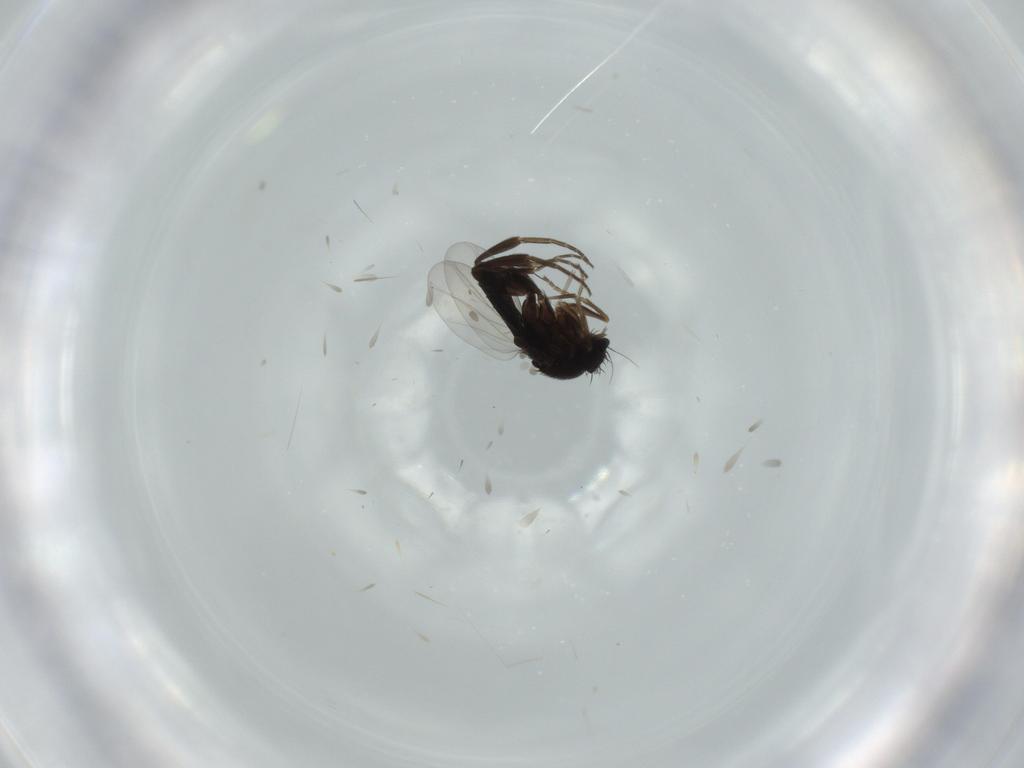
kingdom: Animalia
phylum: Arthropoda
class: Insecta
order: Diptera
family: Phoridae
